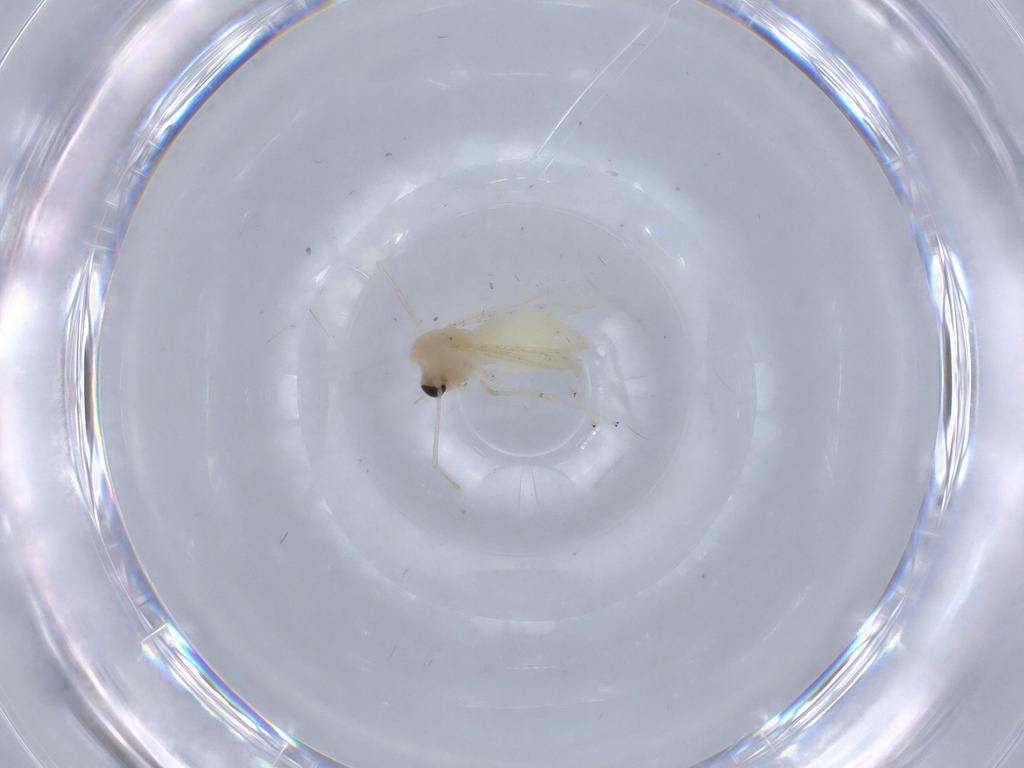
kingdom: Animalia
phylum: Arthropoda
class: Insecta
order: Diptera
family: Chironomidae
